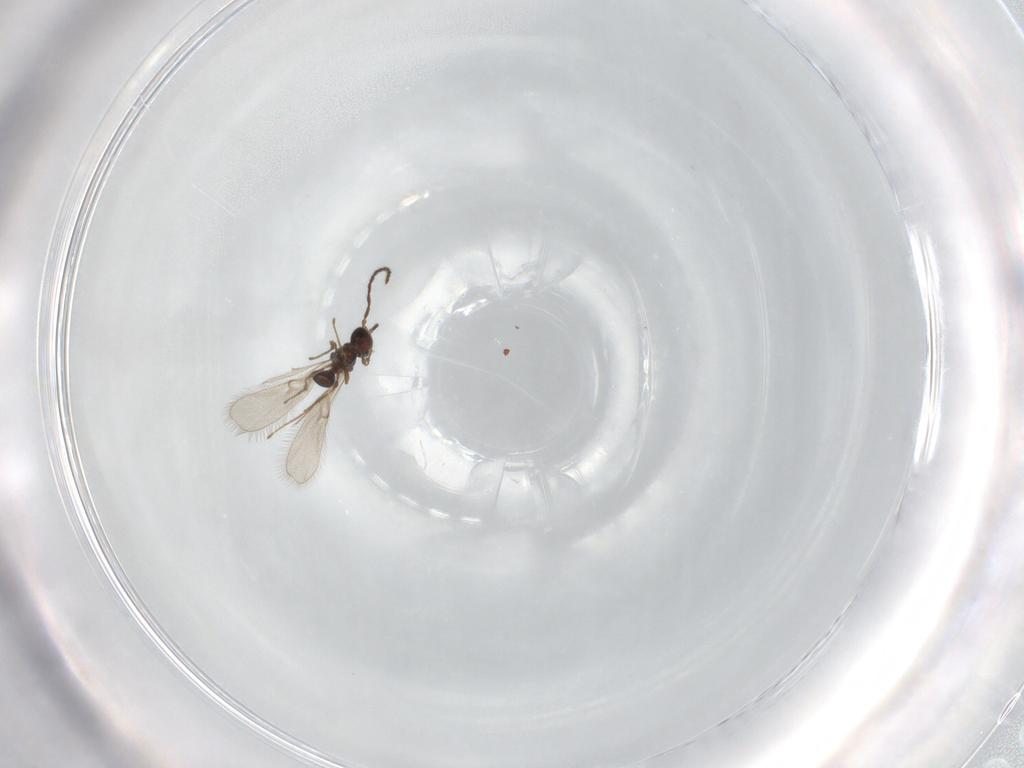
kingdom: Animalia
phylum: Arthropoda
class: Insecta
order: Hymenoptera
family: Diapriidae
